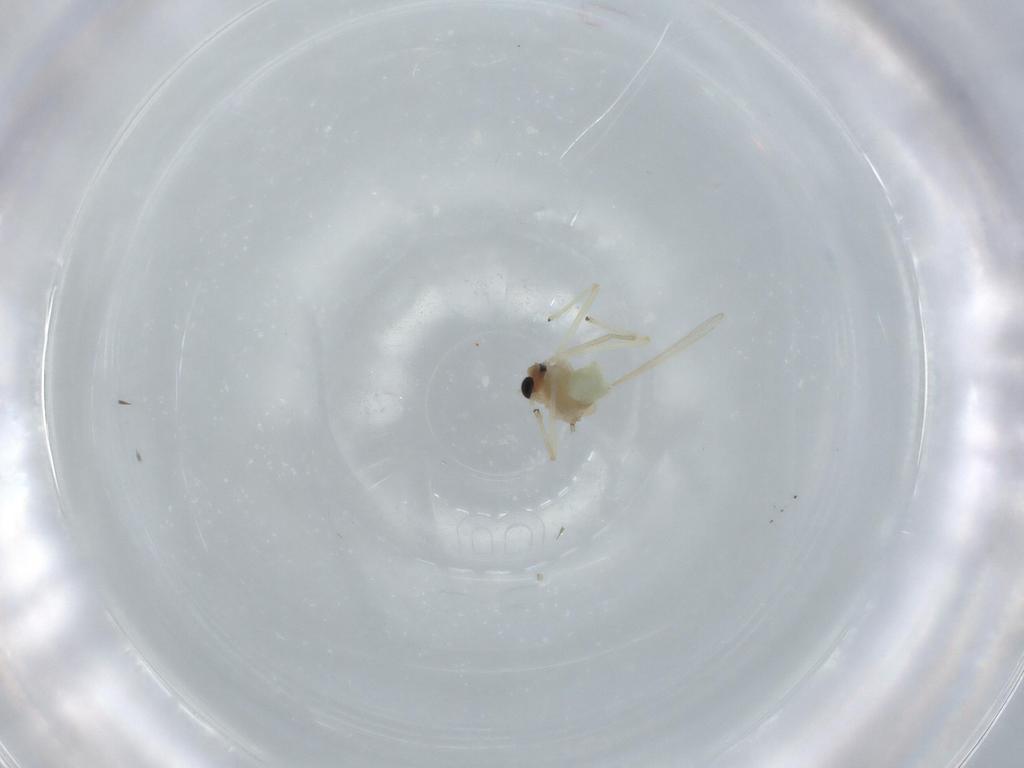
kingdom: Animalia
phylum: Arthropoda
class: Insecta
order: Diptera
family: Chironomidae
